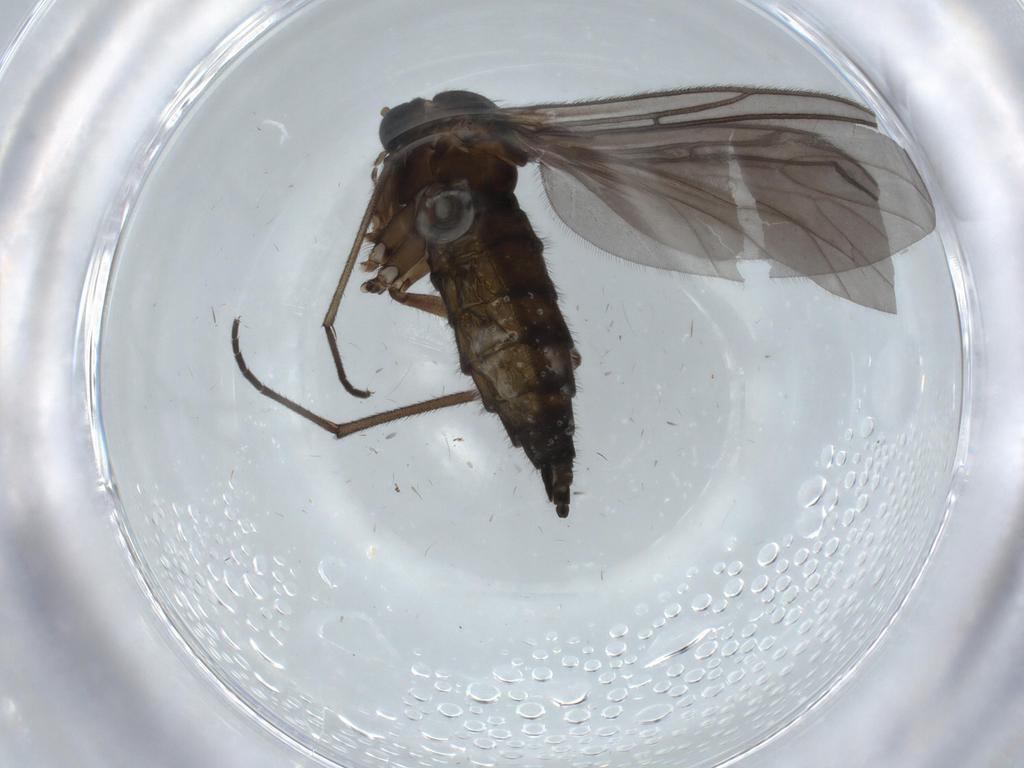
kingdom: Animalia
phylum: Arthropoda
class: Insecta
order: Diptera
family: Sciaridae
